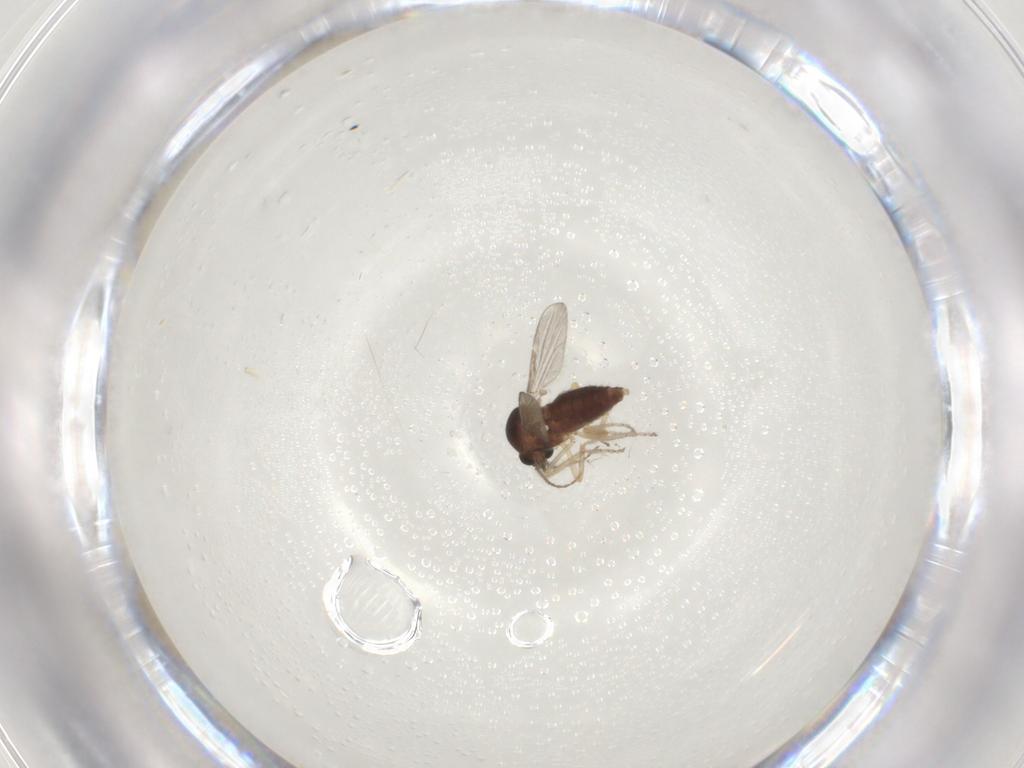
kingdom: Animalia
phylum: Arthropoda
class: Insecta
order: Diptera
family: Ceratopogonidae
